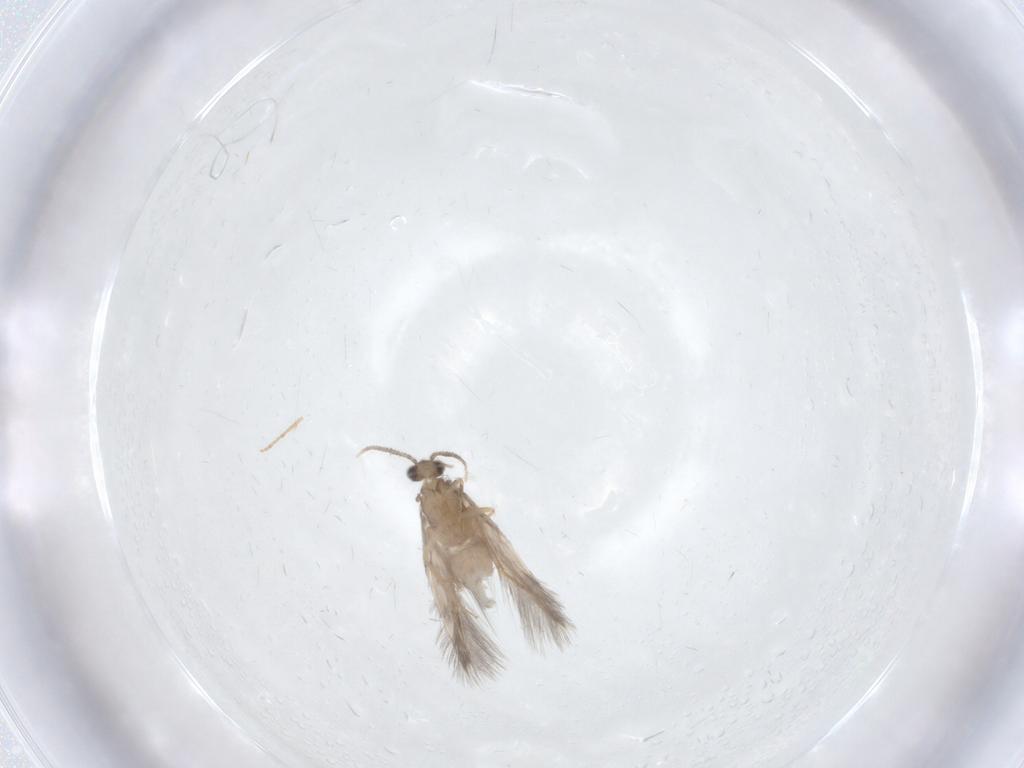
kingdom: Animalia
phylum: Arthropoda
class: Insecta
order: Trichoptera
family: Hydroptilidae
